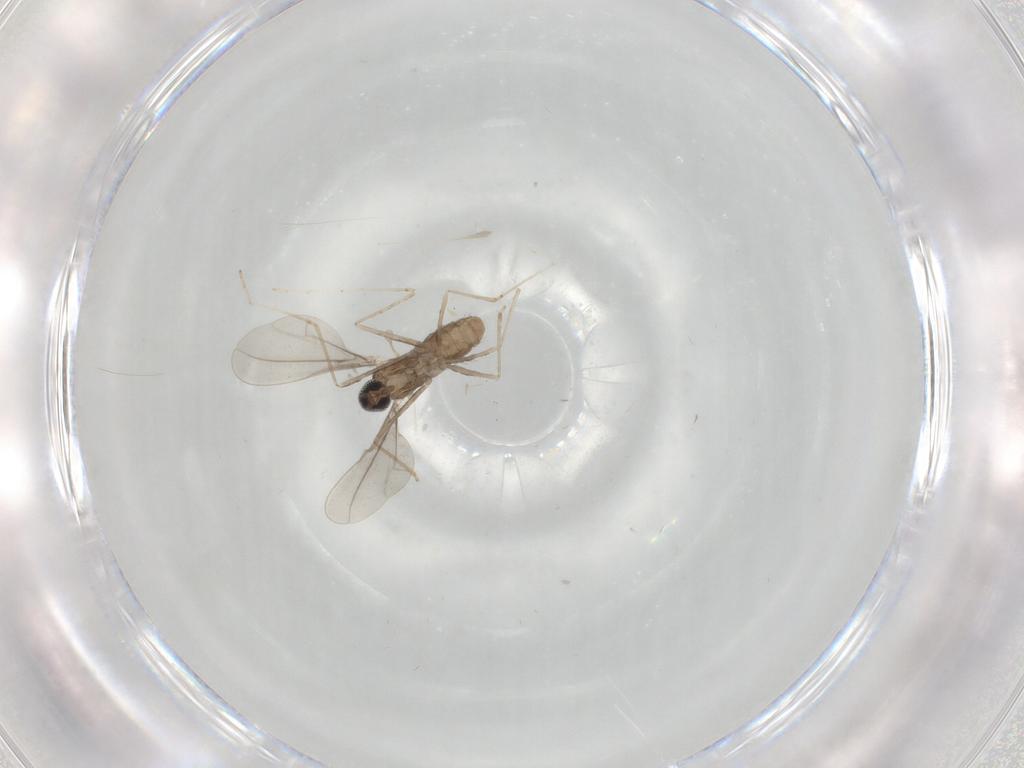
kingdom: Animalia
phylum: Arthropoda
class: Insecta
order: Diptera
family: Cecidomyiidae
